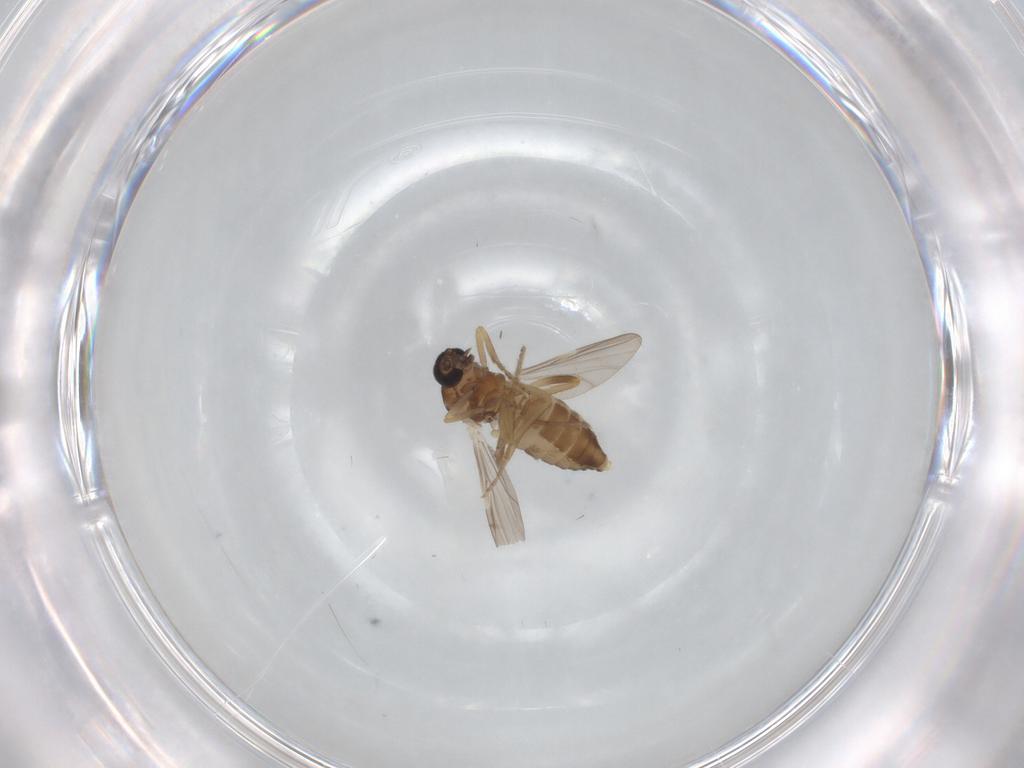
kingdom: Animalia
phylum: Arthropoda
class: Insecta
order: Diptera
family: Ceratopogonidae
